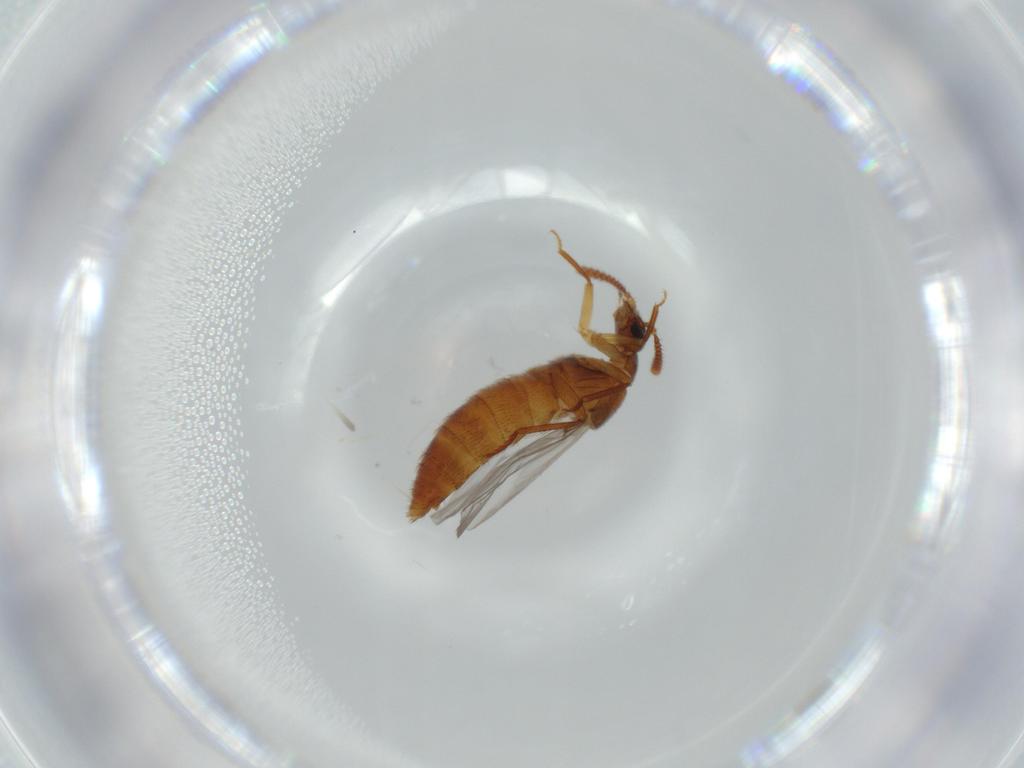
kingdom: Animalia
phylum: Arthropoda
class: Insecta
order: Coleoptera
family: Staphylinidae
